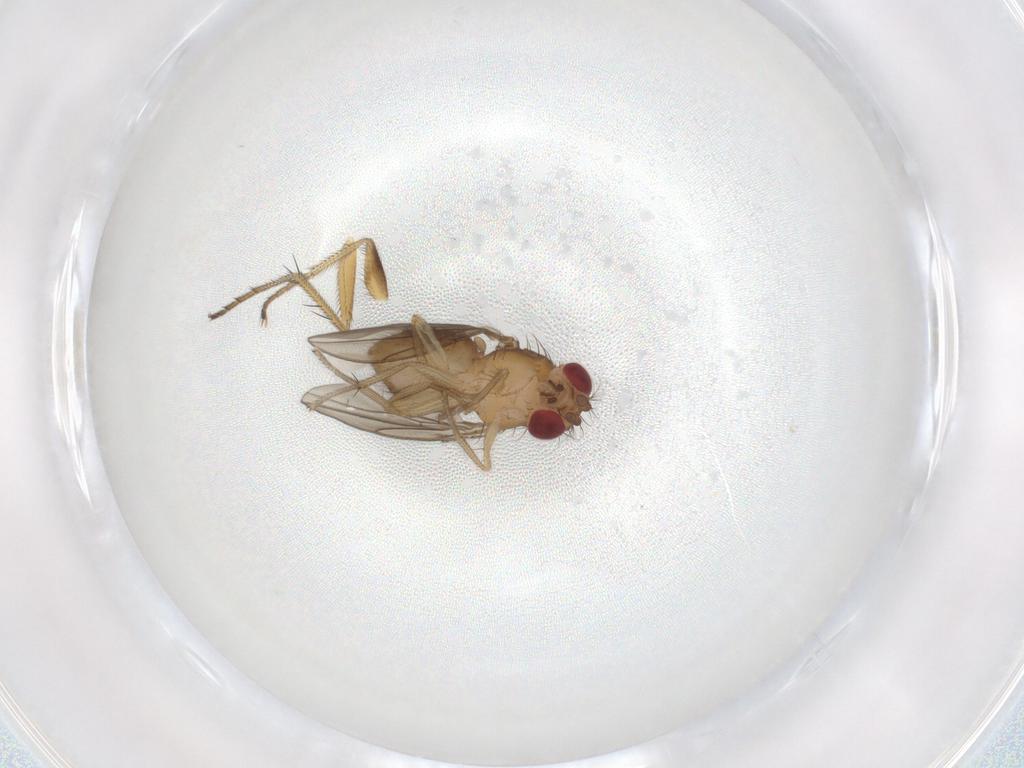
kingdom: Animalia
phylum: Arthropoda
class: Insecta
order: Diptera
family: Drosophilidae
